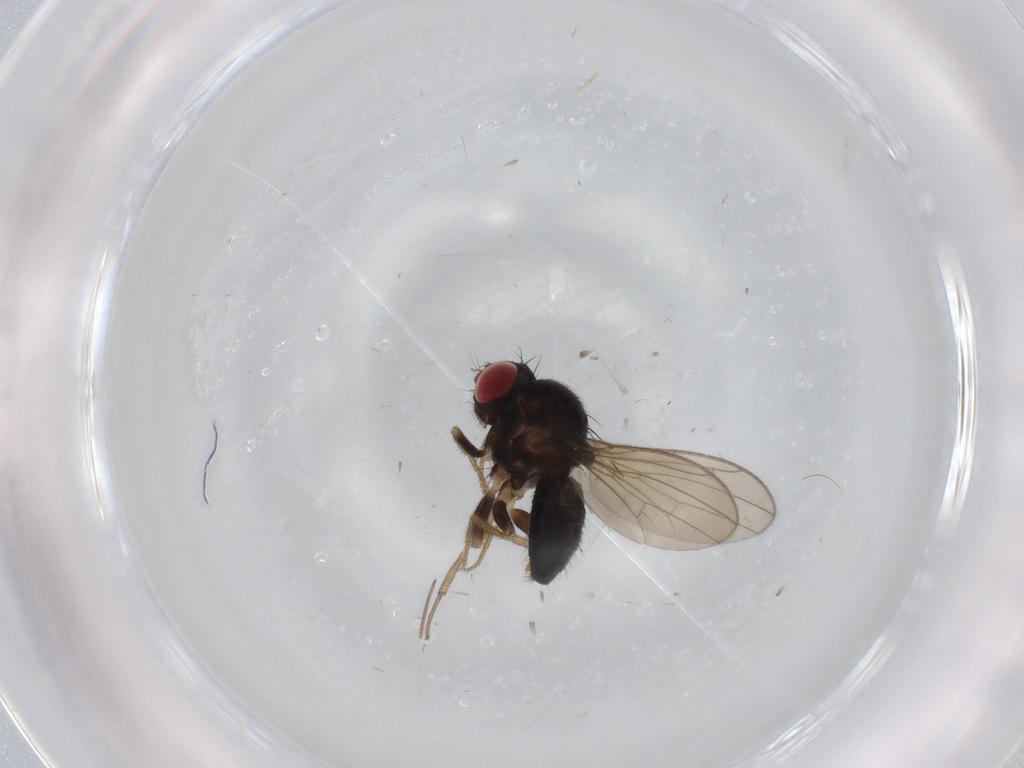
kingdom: Animalia
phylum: Arthropoda
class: Insecta
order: Diptera
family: Drosophilidae
